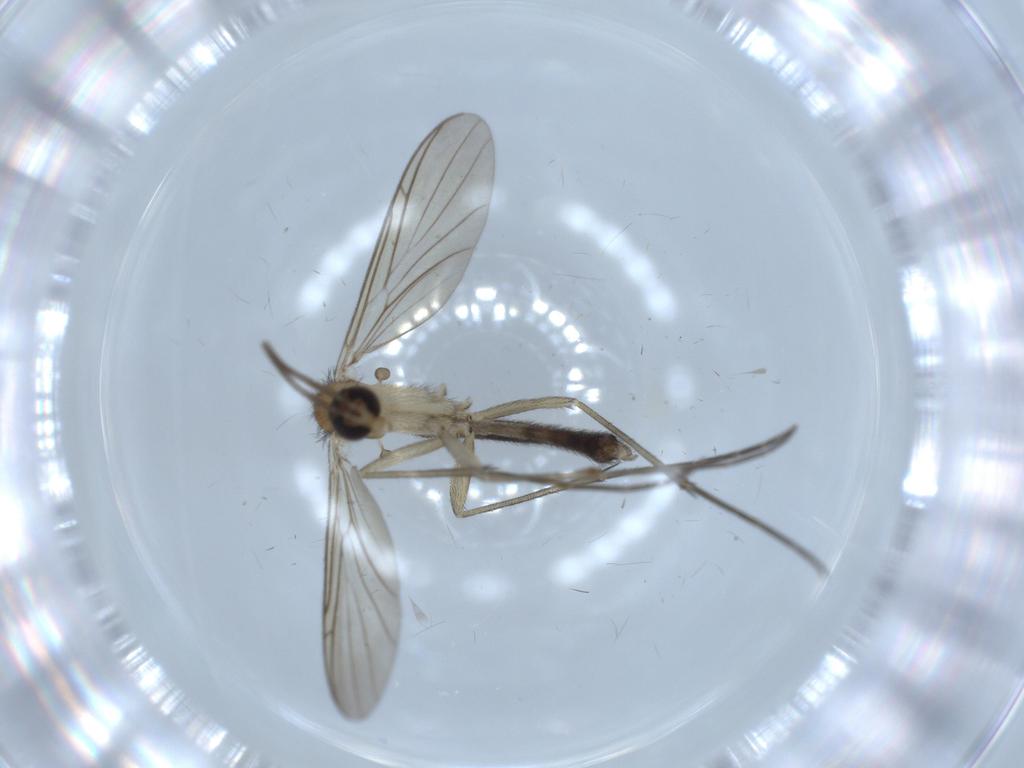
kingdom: Animalia
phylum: Arthropoda
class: Insecta
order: Diptera
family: Keroplatidae
